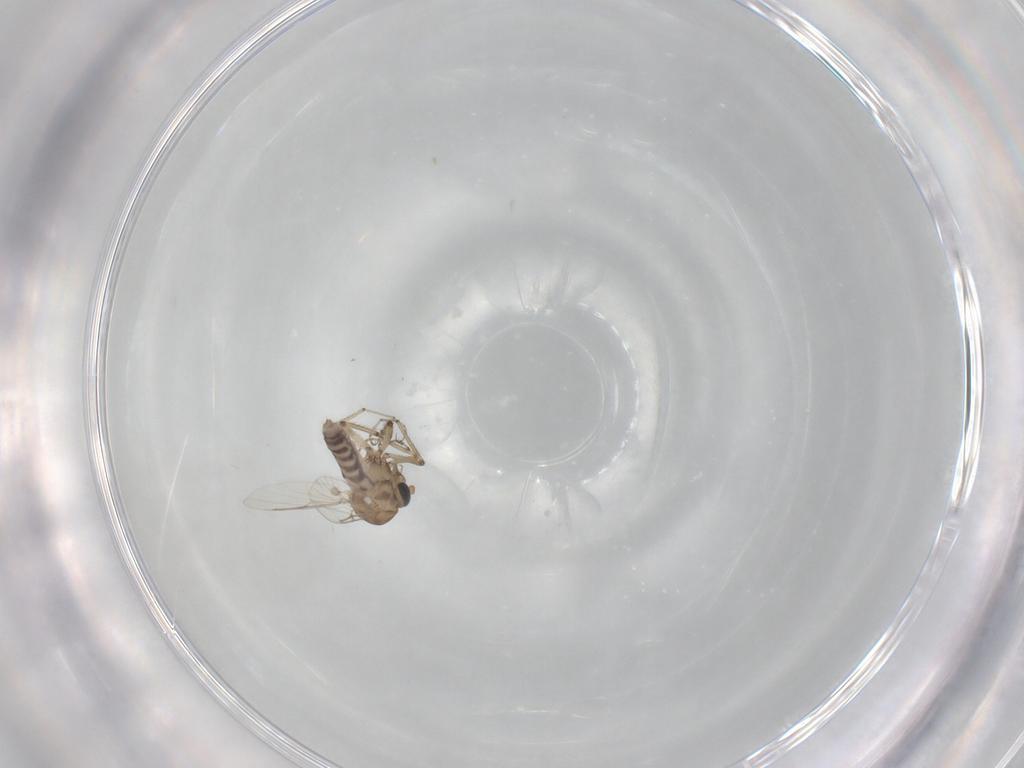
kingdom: Animalia
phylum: Arthropoda
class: Insecta
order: Diptera
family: Ceratopogonidae
